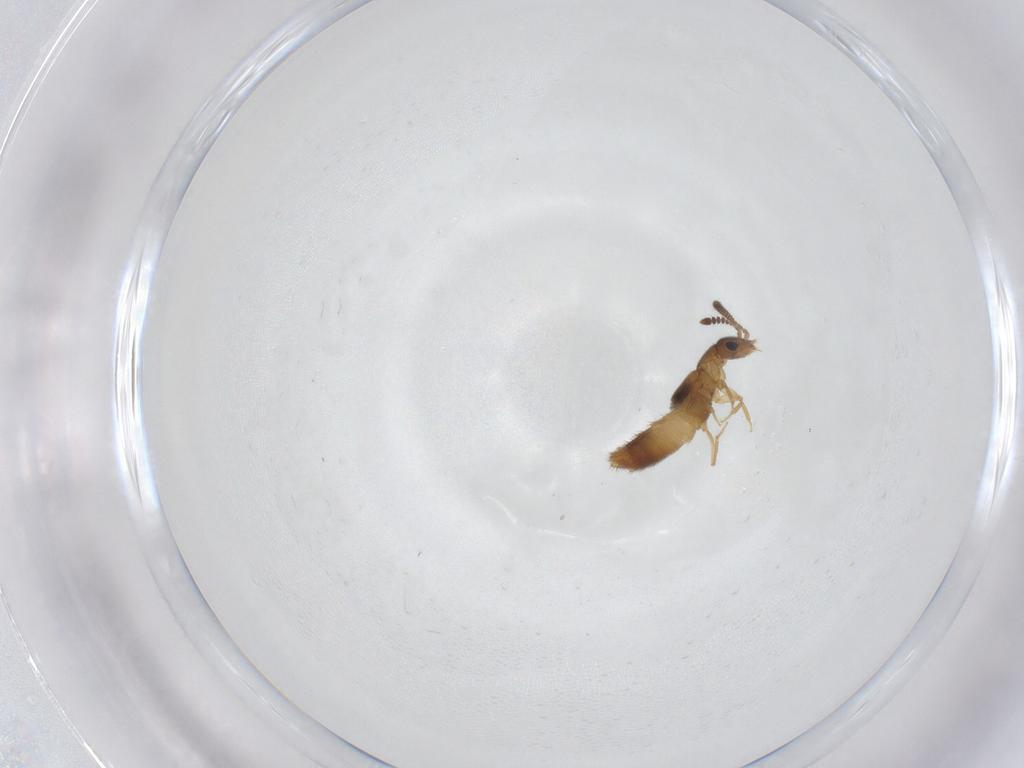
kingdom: Animalia
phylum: Arthropoda
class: Insecta
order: Coleoptera
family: Staphylinidae
